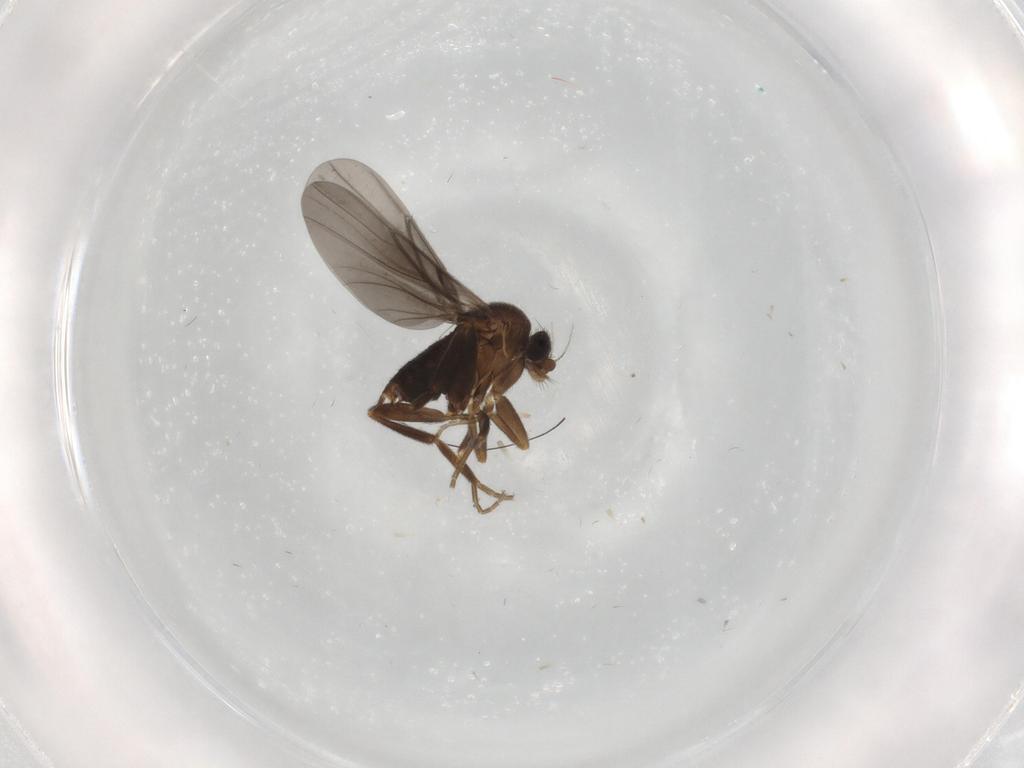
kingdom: Animalia
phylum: Arthropoda
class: Insecta
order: Diptera
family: Phoridae
